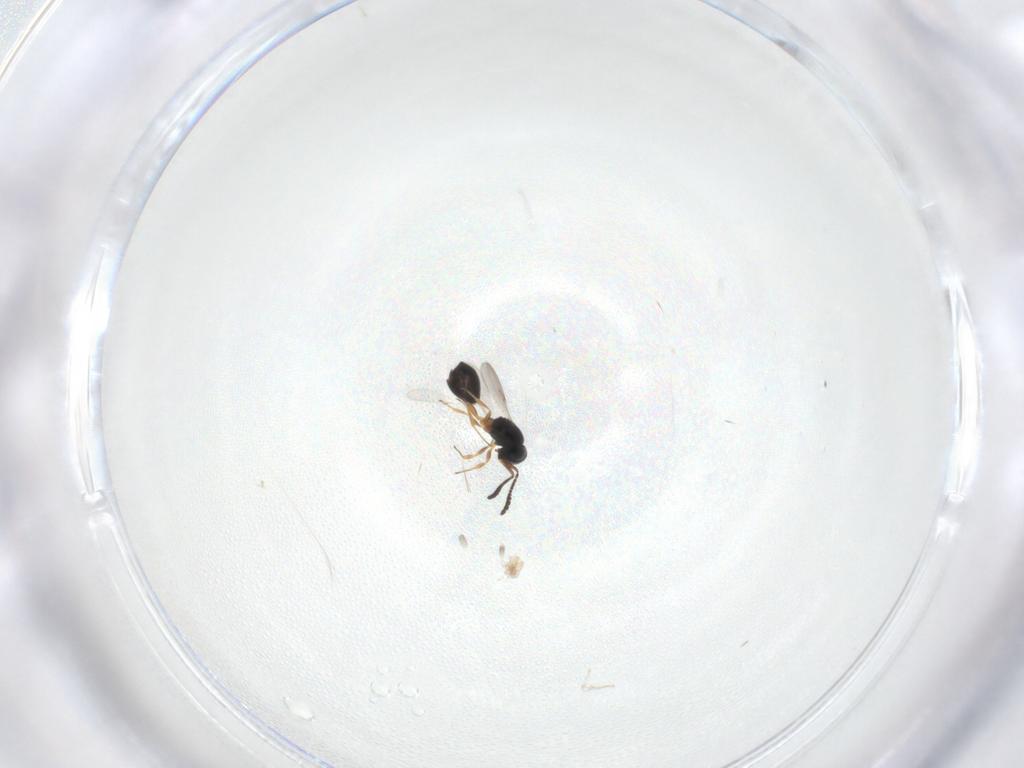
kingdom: Animalia
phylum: Arthropoda
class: Insecta
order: Hymenoptera
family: Scelionidae
